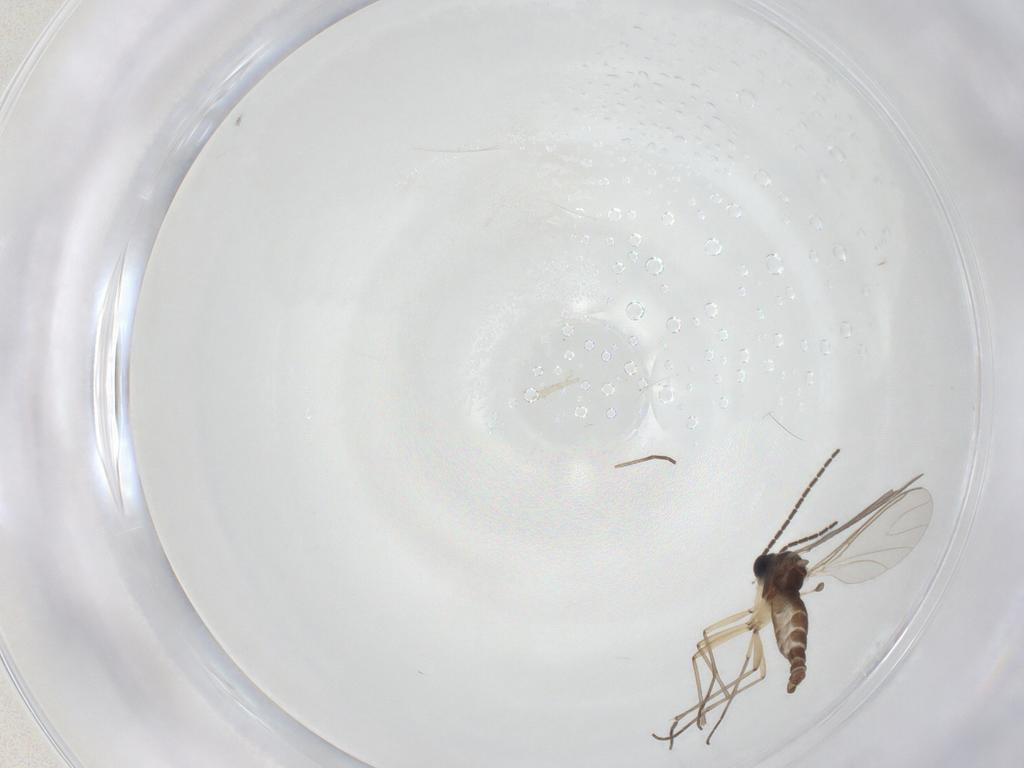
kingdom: Animalia
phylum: Arthropoda
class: Insecta
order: Diptera
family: Sciaridae
